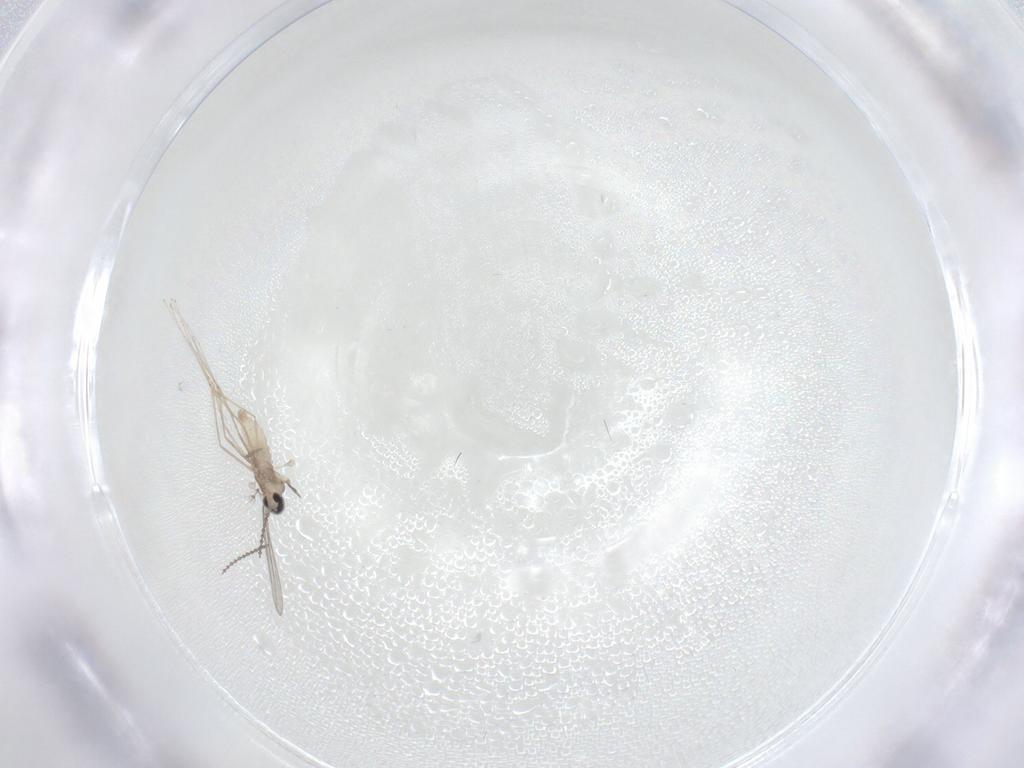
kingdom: Animalia
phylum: Arthropoda
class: Insecta
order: Diptera
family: Cecidomyiidae
